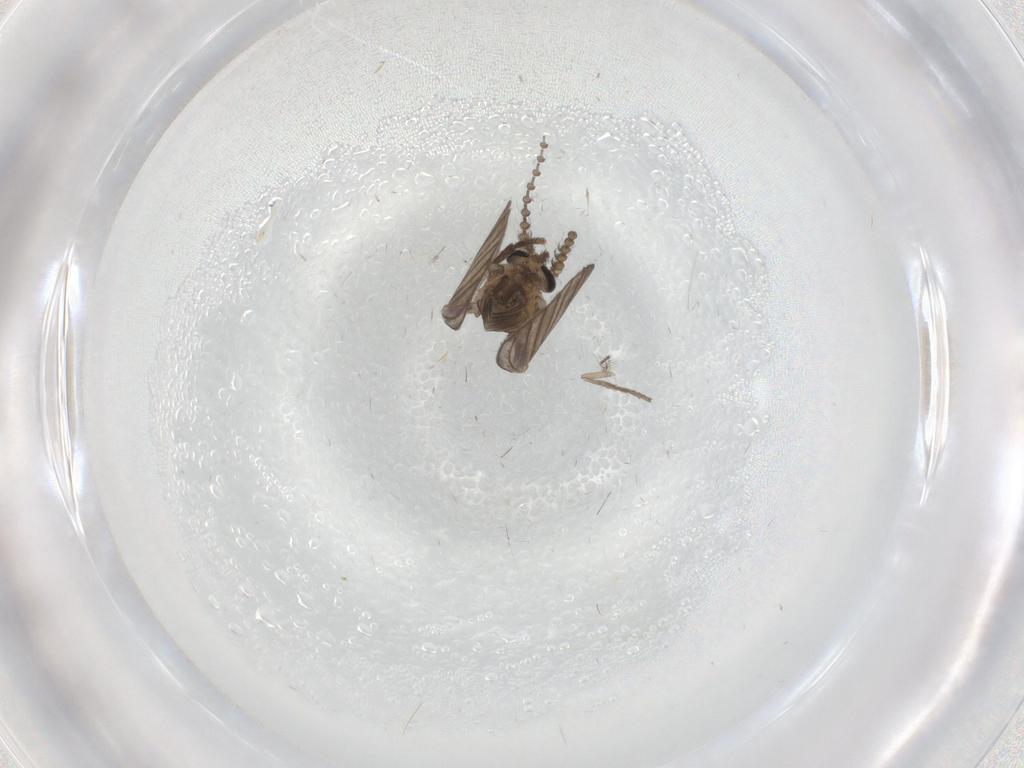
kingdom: Animalia
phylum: Arthropoda
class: Insecta
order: Diptera
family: Psychodidae
